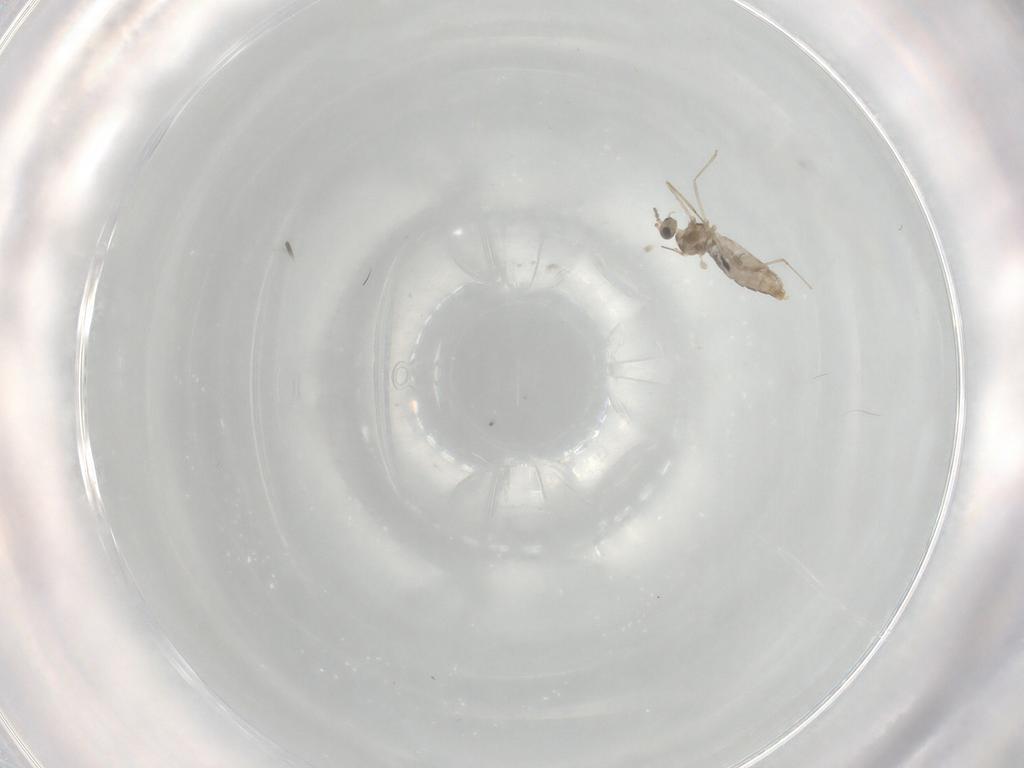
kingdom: Animalia
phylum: Arthropoda
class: Insecta
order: Diptera
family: Cecidomyiidae
